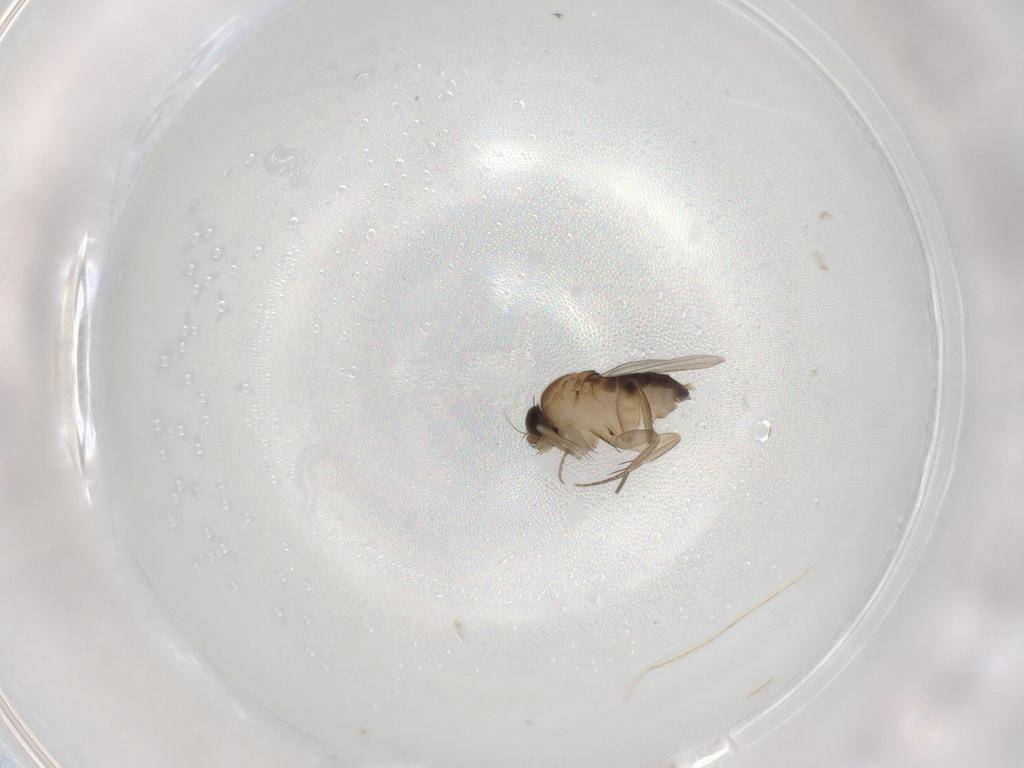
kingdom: Animalia
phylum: Arthropoda
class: Insecta
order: Diptera
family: Phoridae
